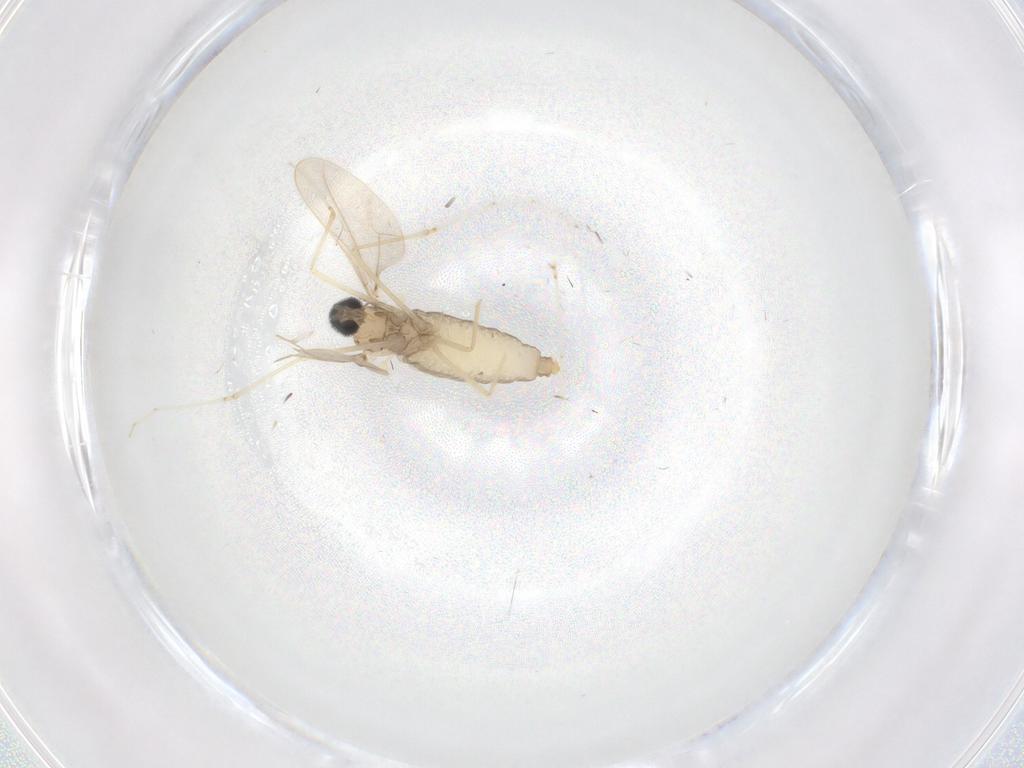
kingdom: Animalia
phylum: Arthropoda
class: Insecta
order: Diptera
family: Cecidomyiidae
